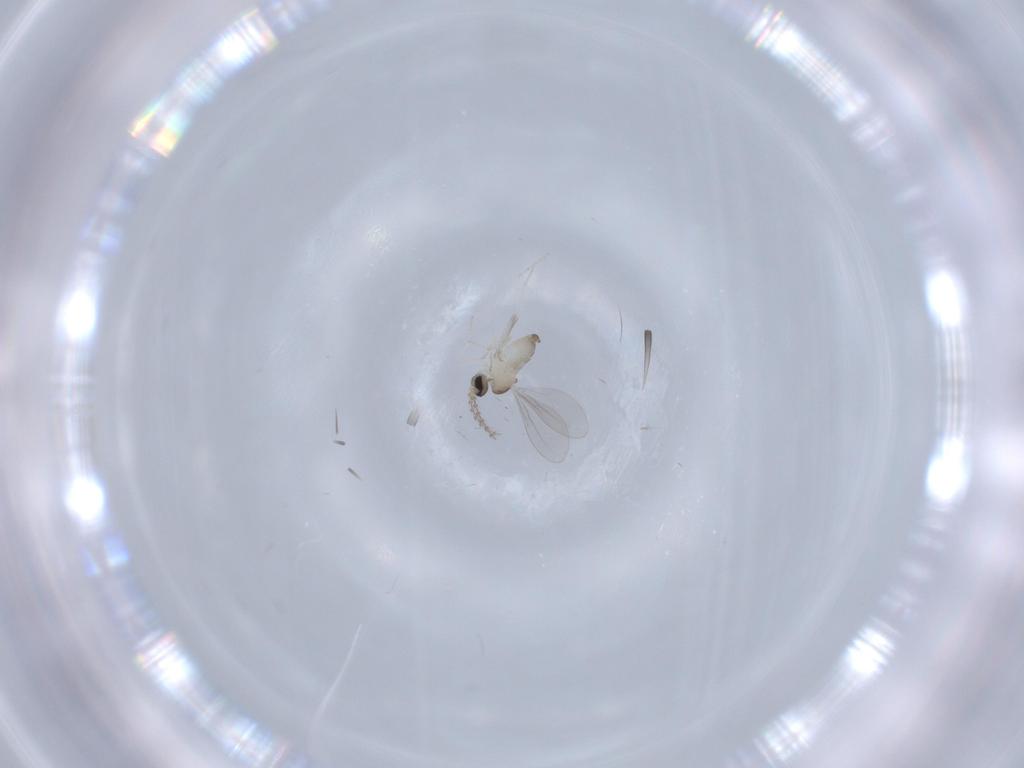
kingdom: Animalia
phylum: Arthropoda
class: Insecta
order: Diptera
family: Cecidomyiidae
